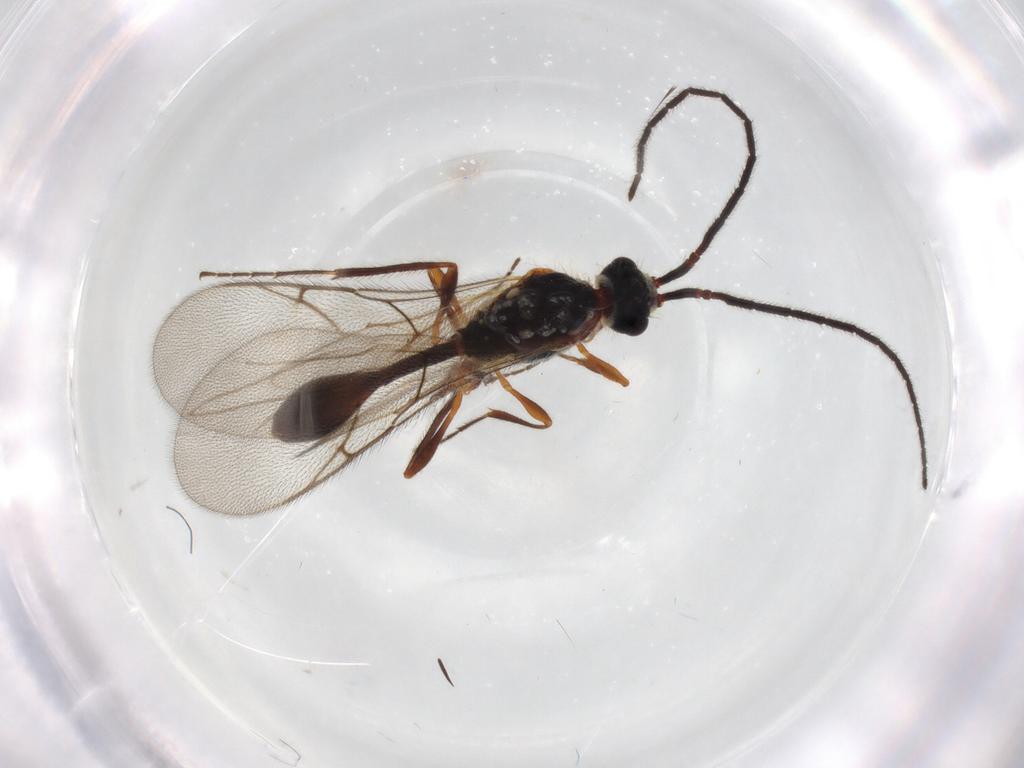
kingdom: Animalia
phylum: Arthropoda
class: Insecta
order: Hymenoptera
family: Diapriidae
